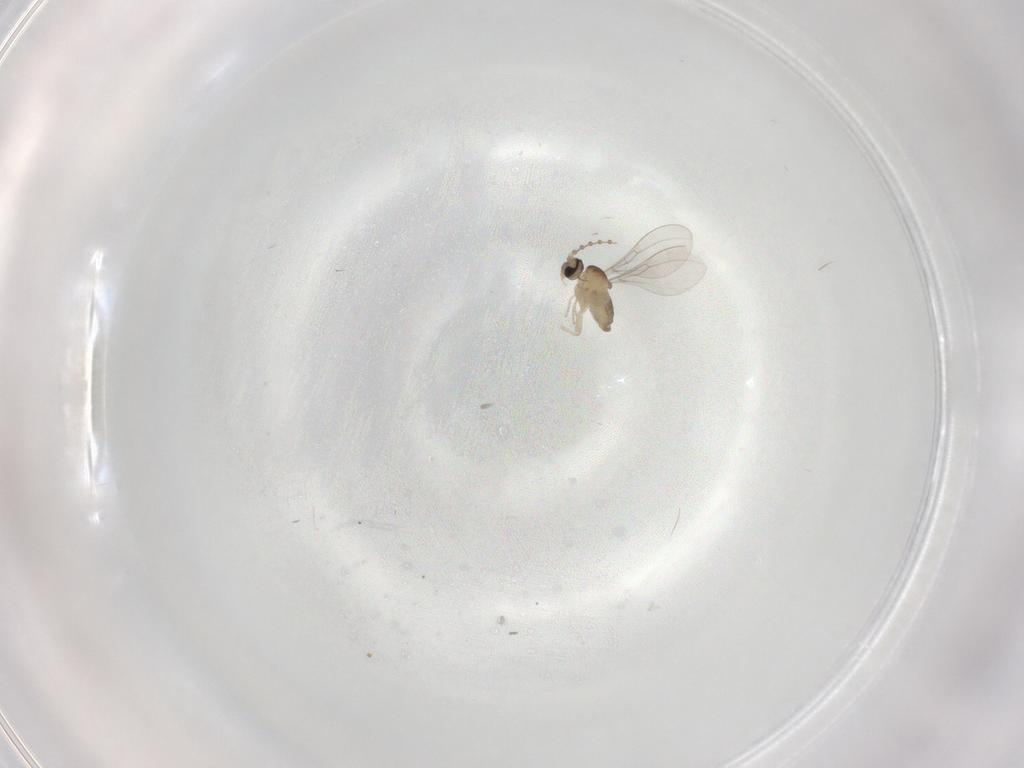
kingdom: Animalia
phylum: Arthropoda
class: Insecta
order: Diptera
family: Cecidomyiidae
